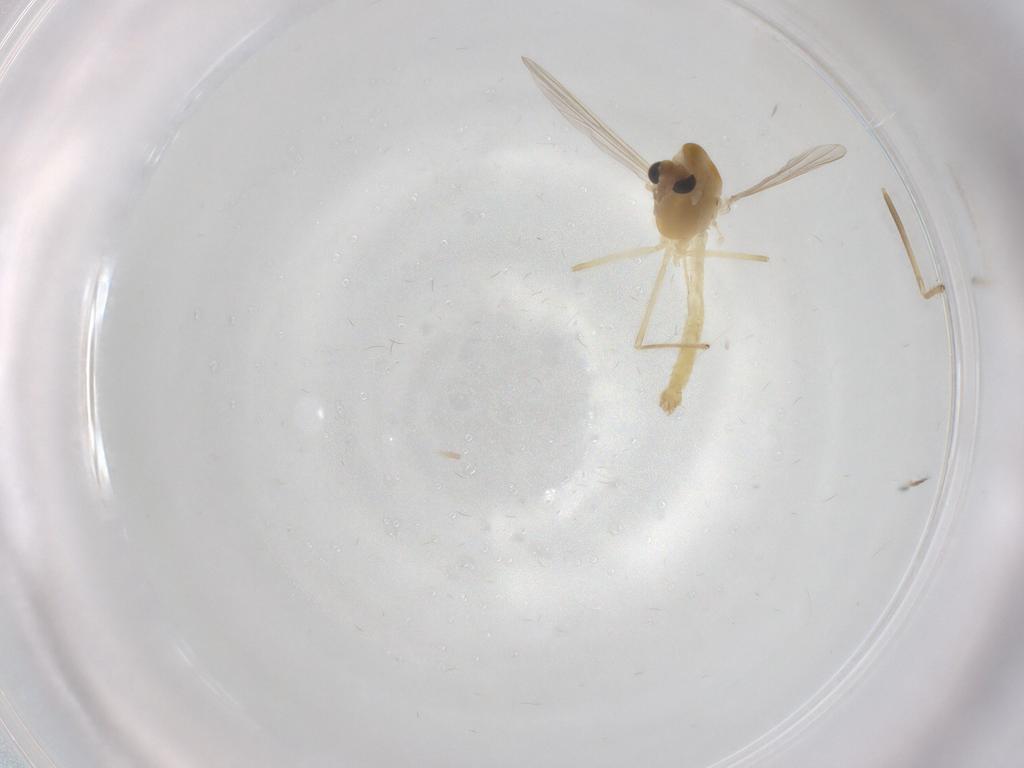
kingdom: Animalia
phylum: Arthropoda
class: Insecta
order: Diptera
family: Chironomidae
